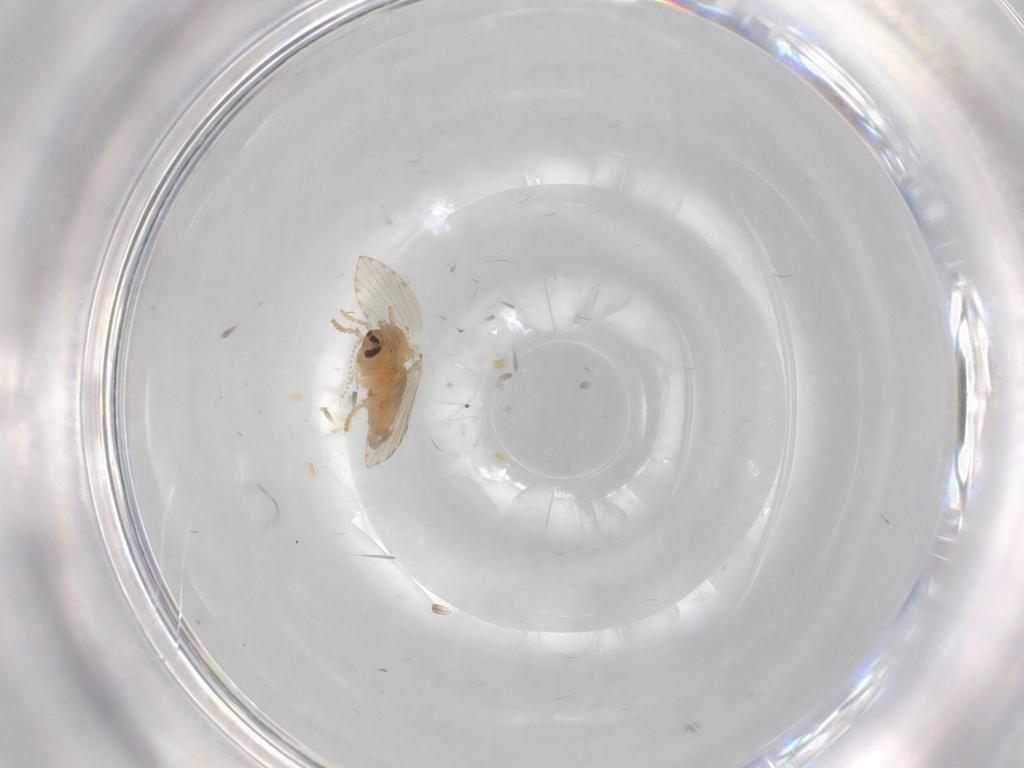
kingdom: Animalia
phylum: Arthropoda
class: Insecta
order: Diptera
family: Psychodidae
